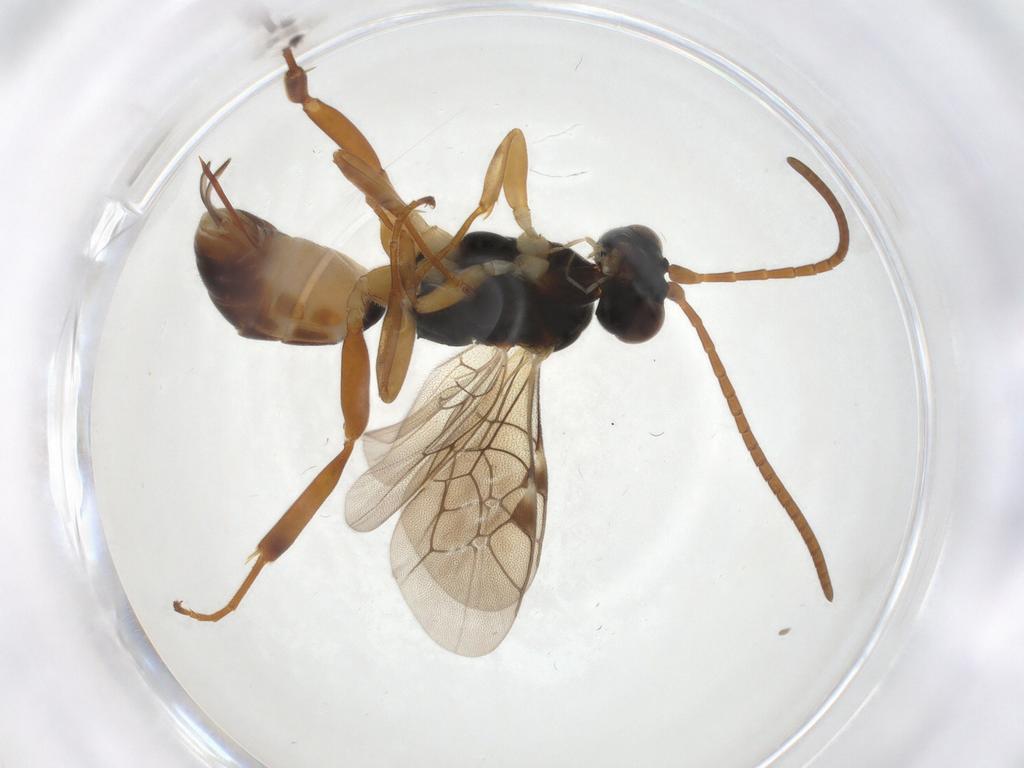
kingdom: Animalia
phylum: Arthropoda
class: Insecta
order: Hymenoptera
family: Ichneumonidae
